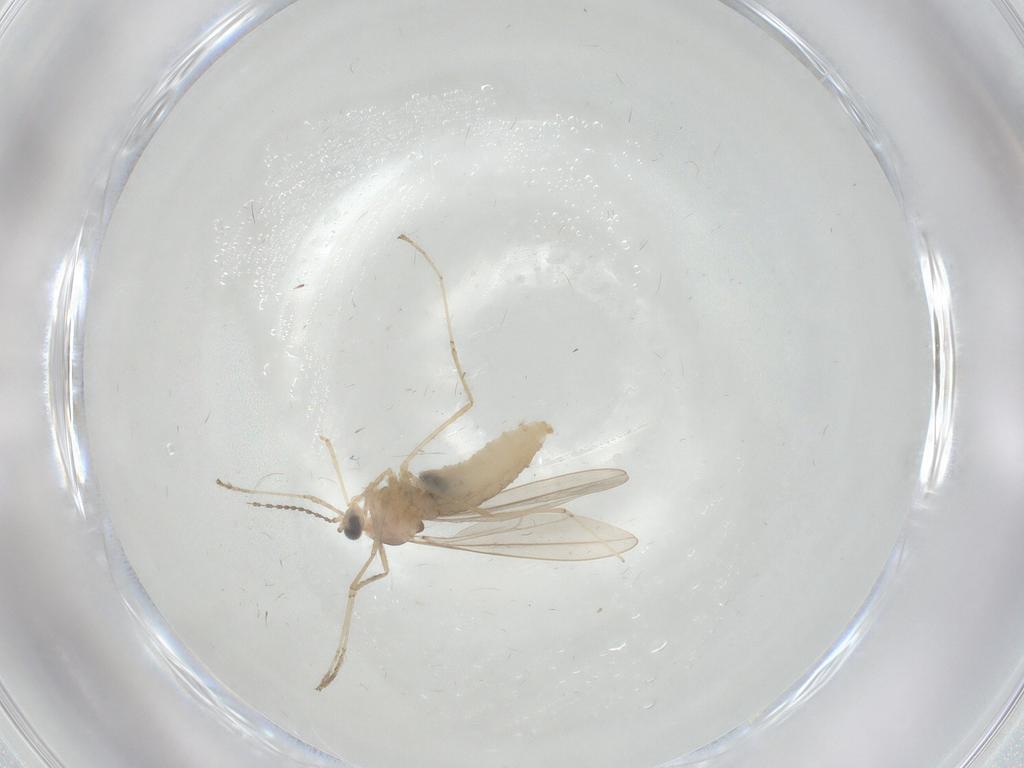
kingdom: Animalia
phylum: Arthropoda
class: Insecta
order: Diptera
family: Cecidomyiidae
